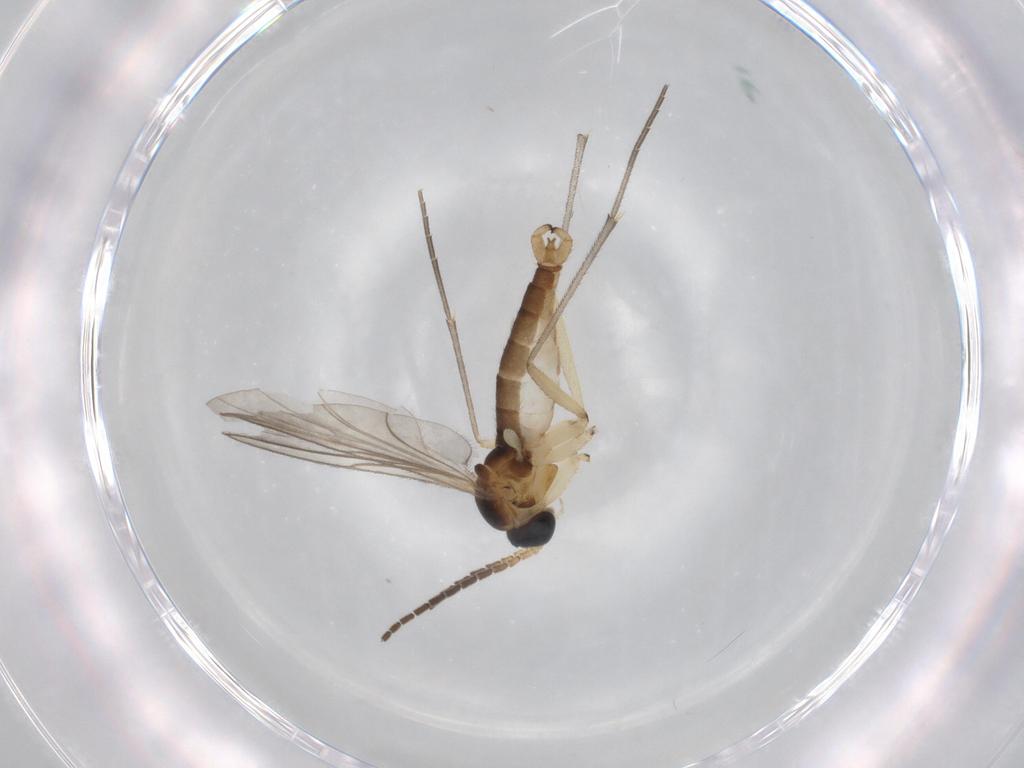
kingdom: Animalia
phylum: Arthropoda
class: Insecta
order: Diptera
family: Sciaridae
